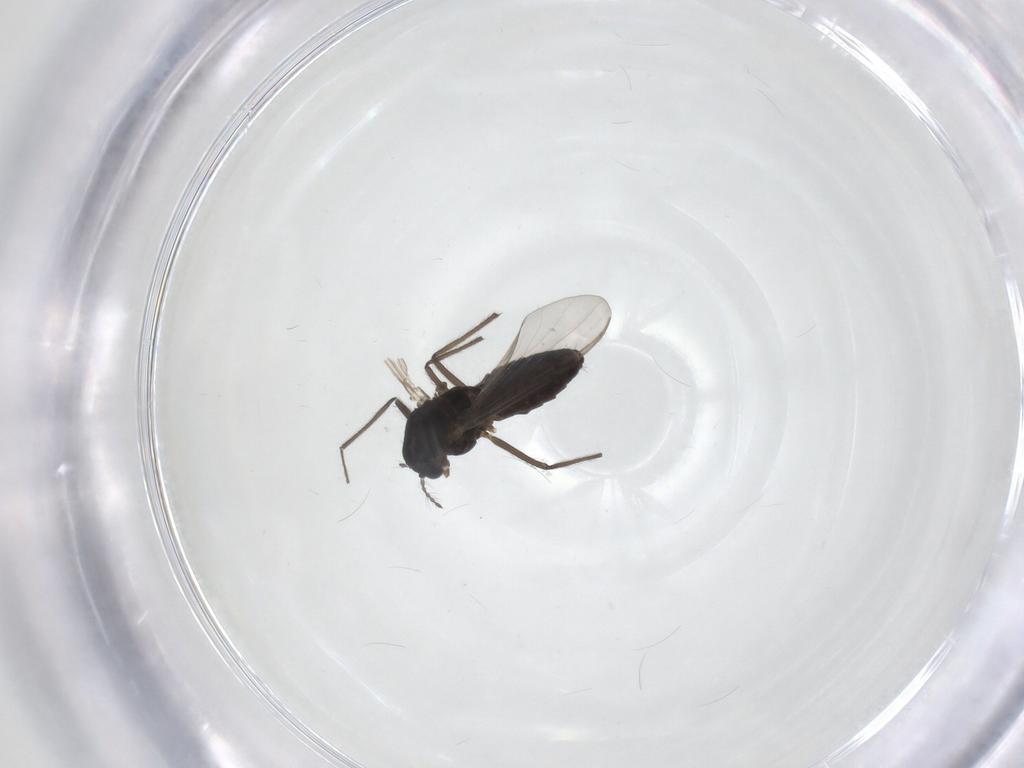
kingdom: Animalia
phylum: Arthropoda
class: Insecta
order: Diptera
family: Chironomidae
